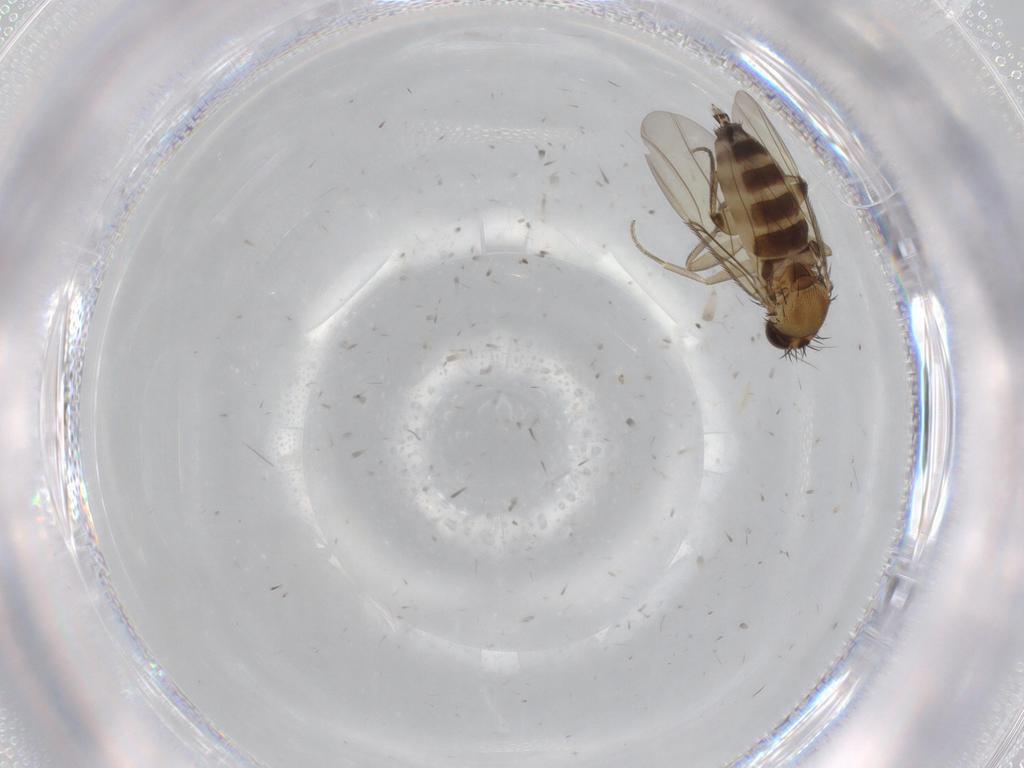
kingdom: Animalia
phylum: Arthropoda
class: Insecta
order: Diptera
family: Phoridae
